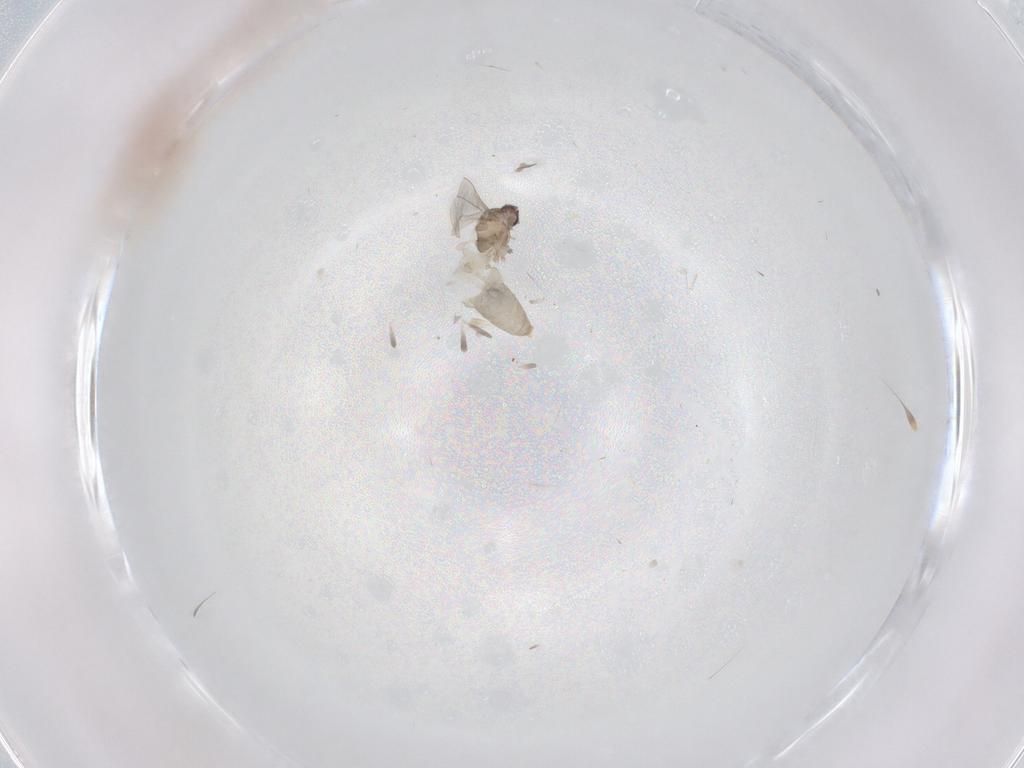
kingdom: Animalia
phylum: Arthropoda
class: Insecta
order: Diptera
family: Cecidomyiidae
